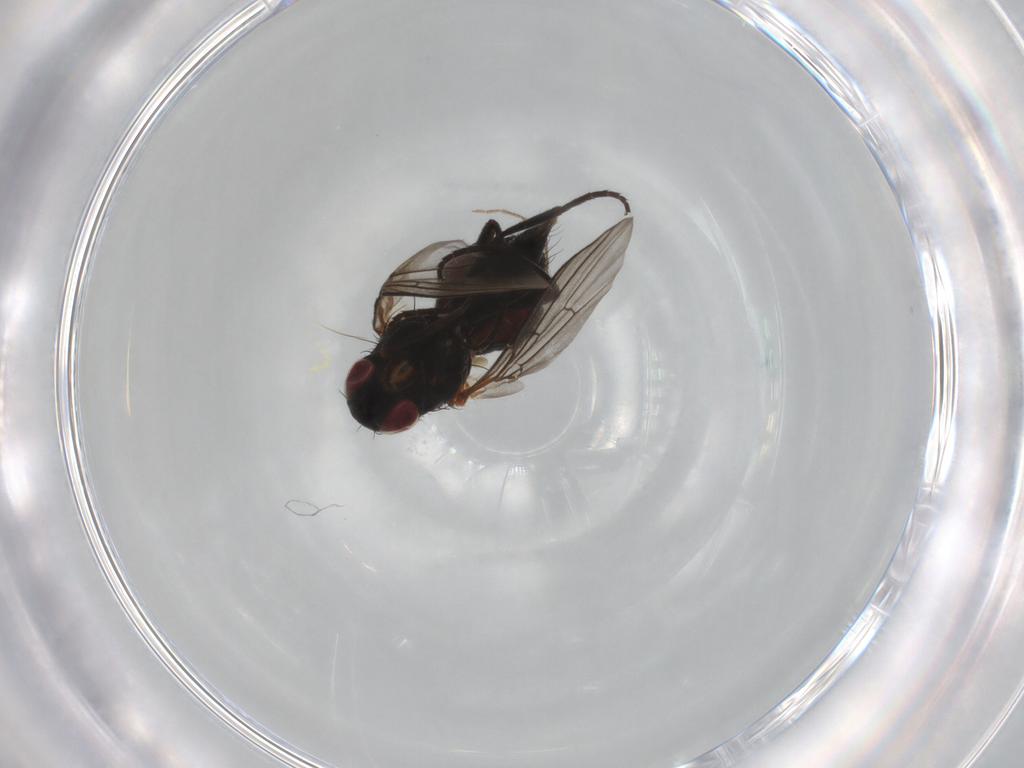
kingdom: Animalia
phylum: Arthropoda
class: Insecta
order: Diptera
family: Agromyzidae
